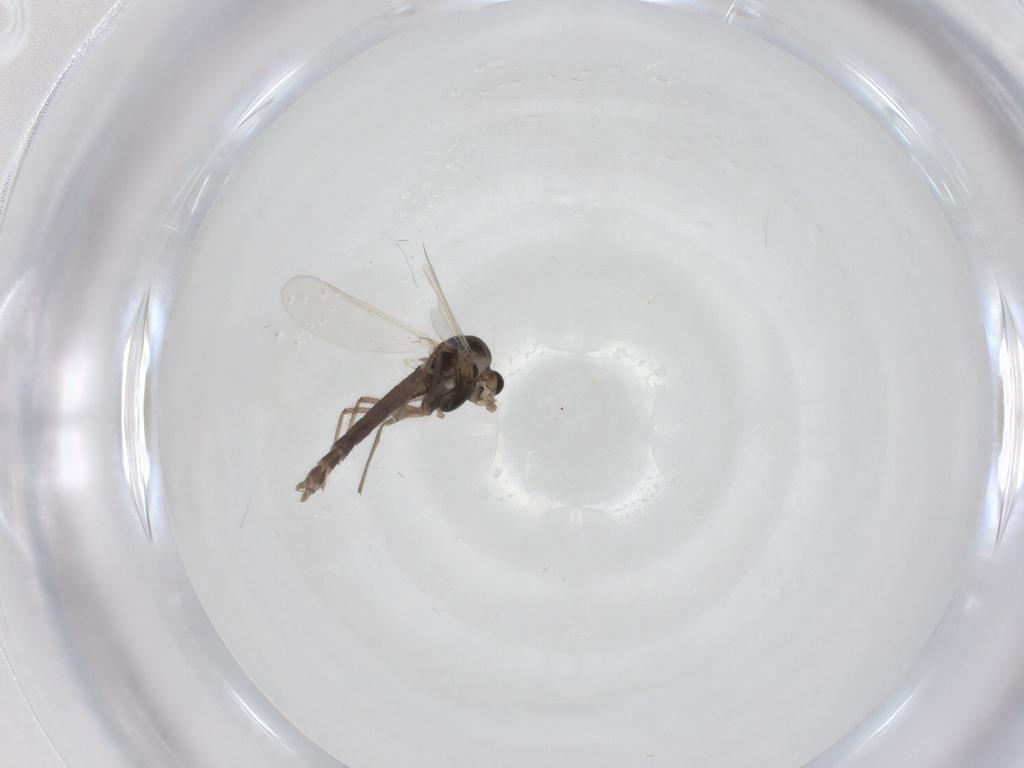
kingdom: Animalia
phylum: Arthropoda
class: Insecta
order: Diptera
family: Chironomidae
